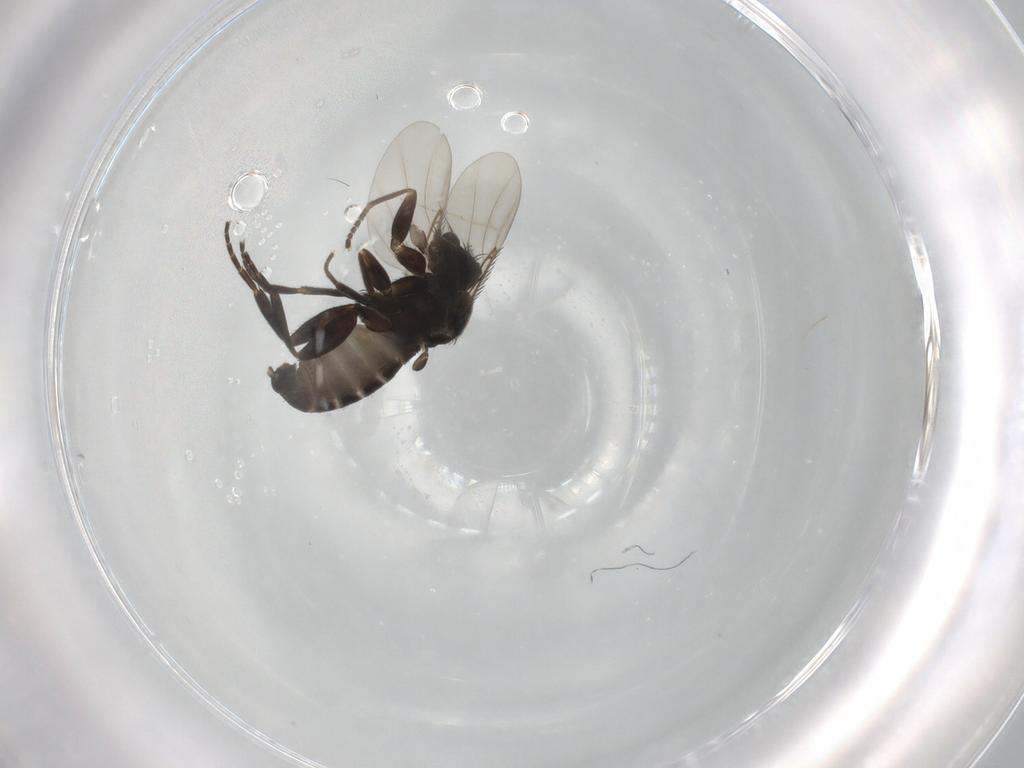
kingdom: Animalia
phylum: Arthropoda
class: Insecta
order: Diptera
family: Phoridae
